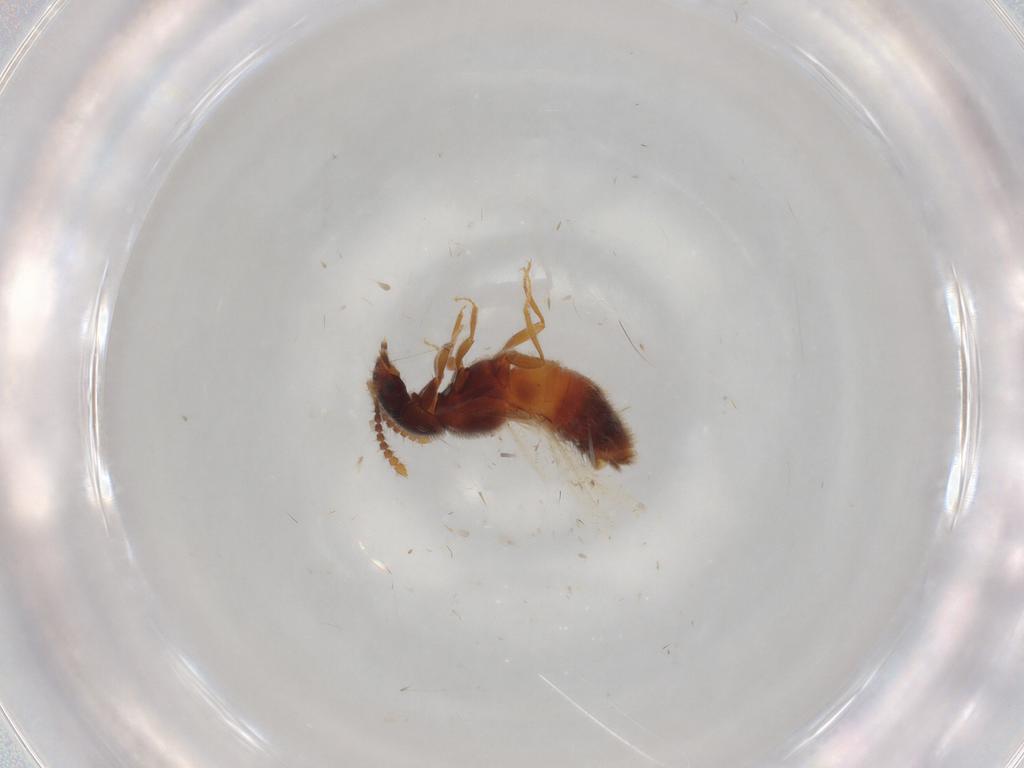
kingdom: Animalia
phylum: Arthropoda
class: Insecta
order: Coleoptera
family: Staphylinidae
